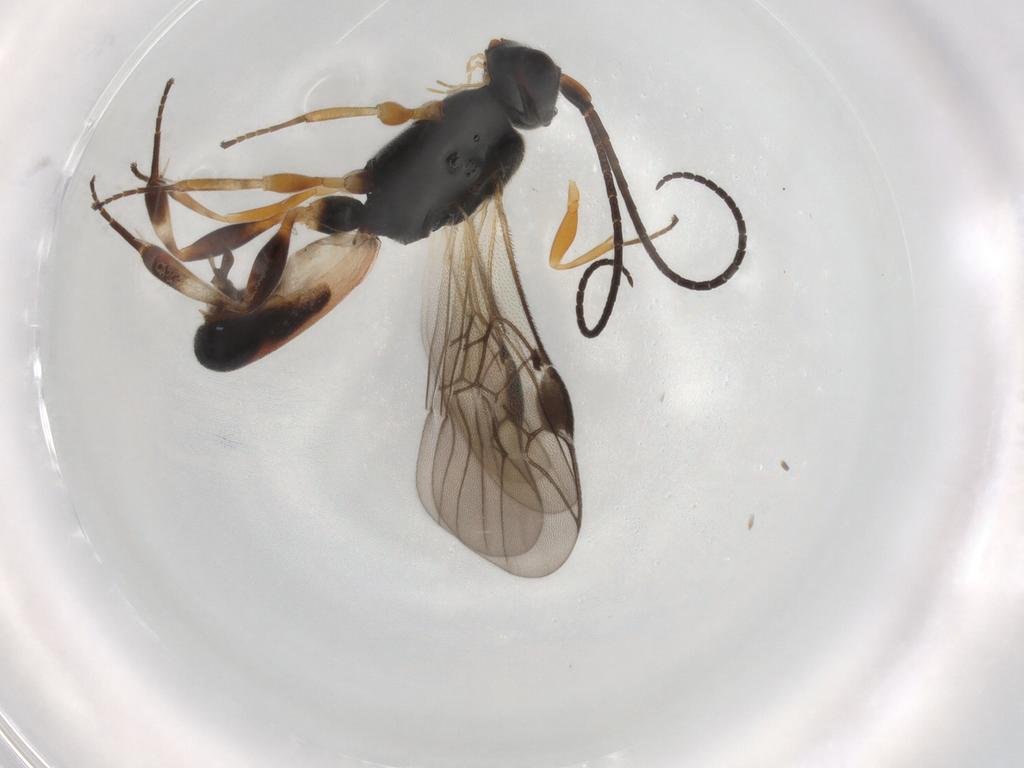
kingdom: Animalia
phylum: Arthropoda
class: Insecta
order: Hymenoptera
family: Braconidae
